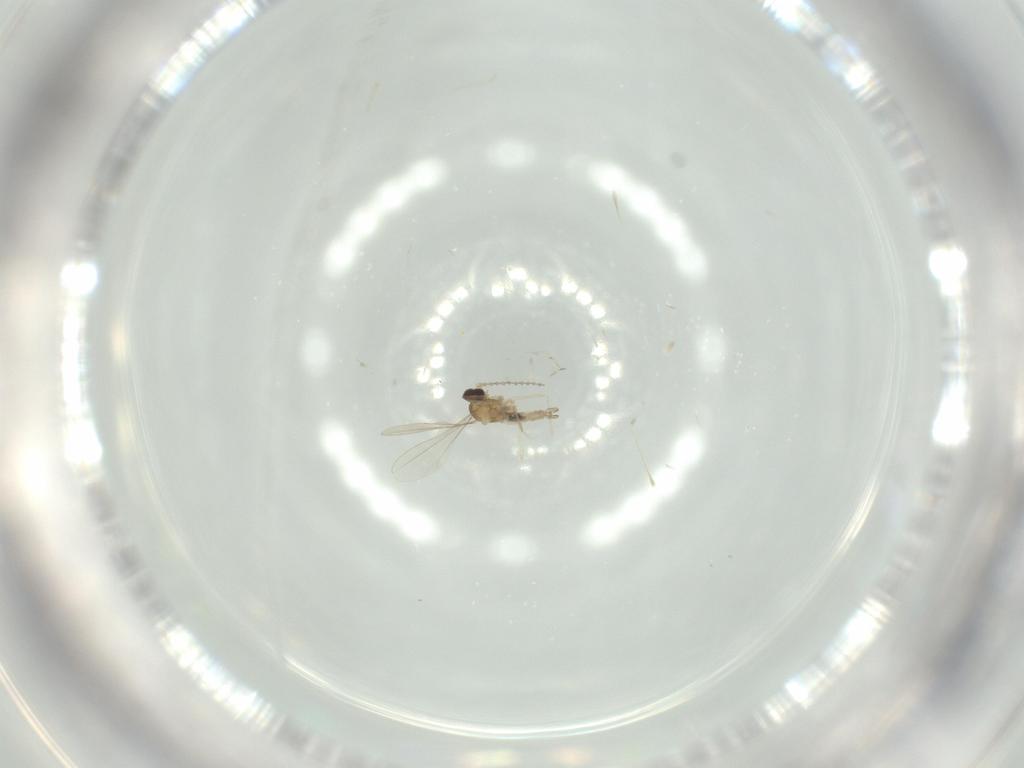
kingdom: Animalia
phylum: Arthropoda
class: Insecta
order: Diptera
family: Cecidomyiidae
